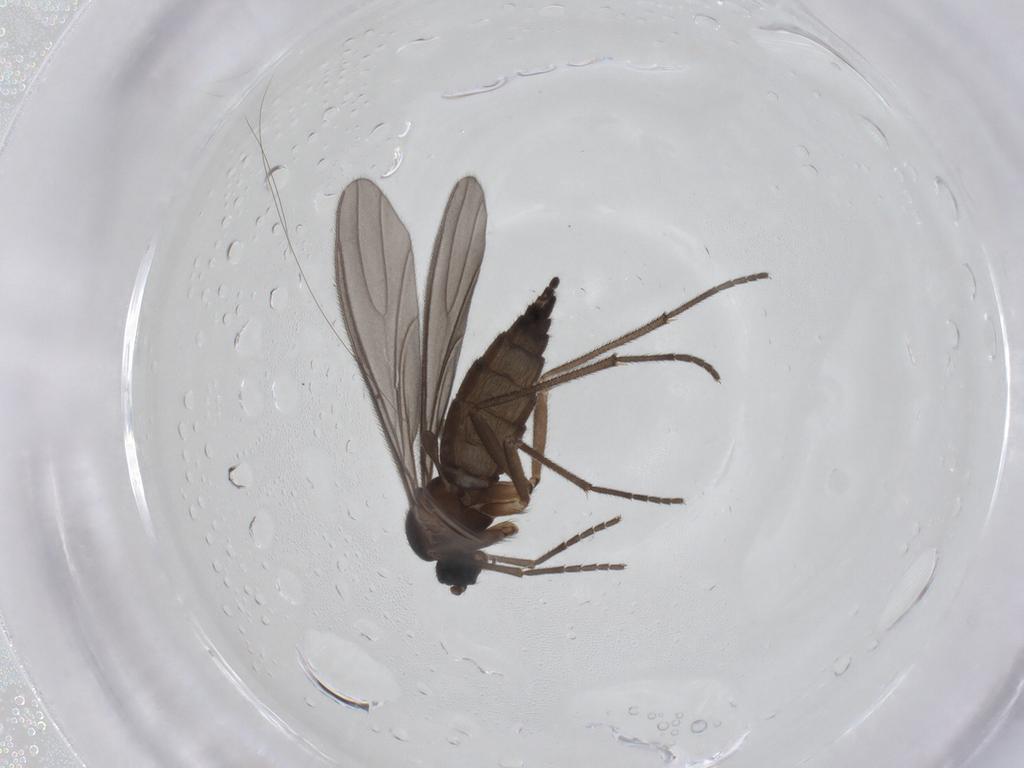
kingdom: Animalia
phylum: Arthropoda
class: Insecta
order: Diptera
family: Sciaridae
